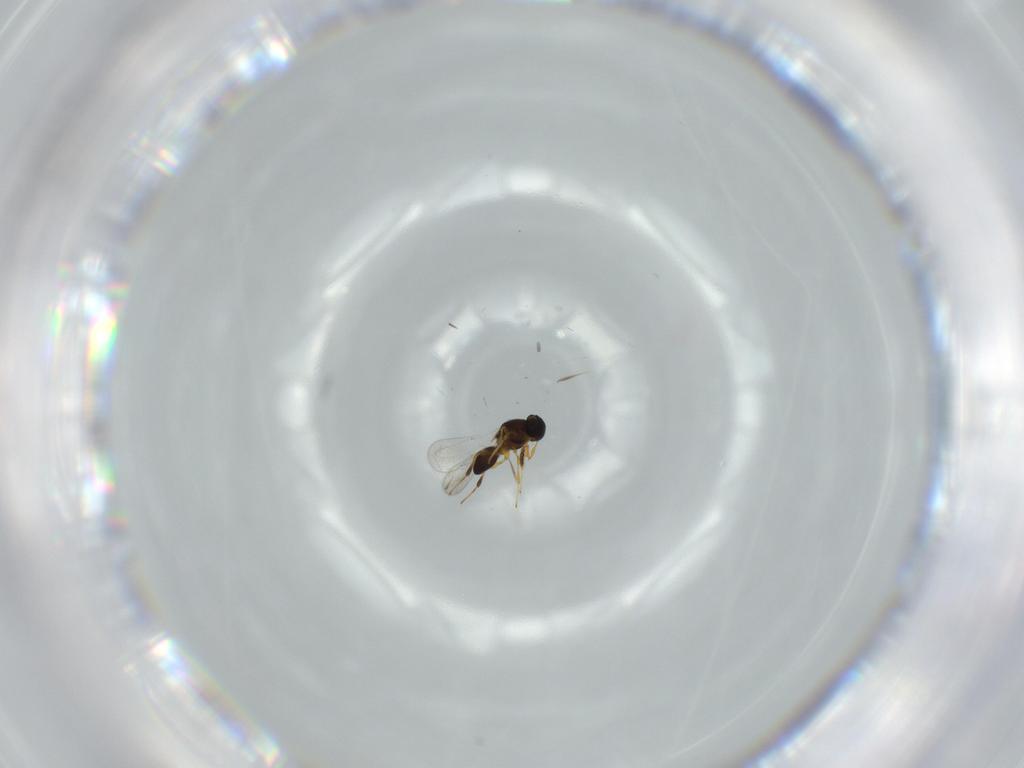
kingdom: Animalia
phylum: Arthropoda
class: Insecta
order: Hymenoptera
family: Platygastridae
